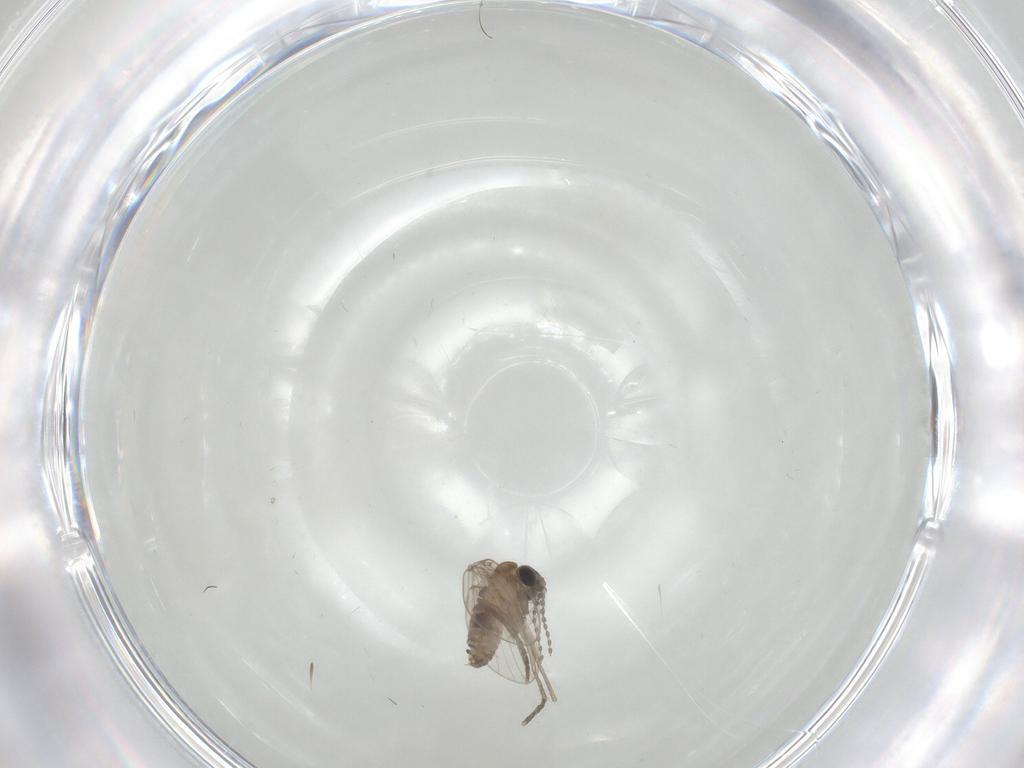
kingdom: Animalia
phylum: Arthropoda
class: Insecta
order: Diptera
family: Psychodidae
